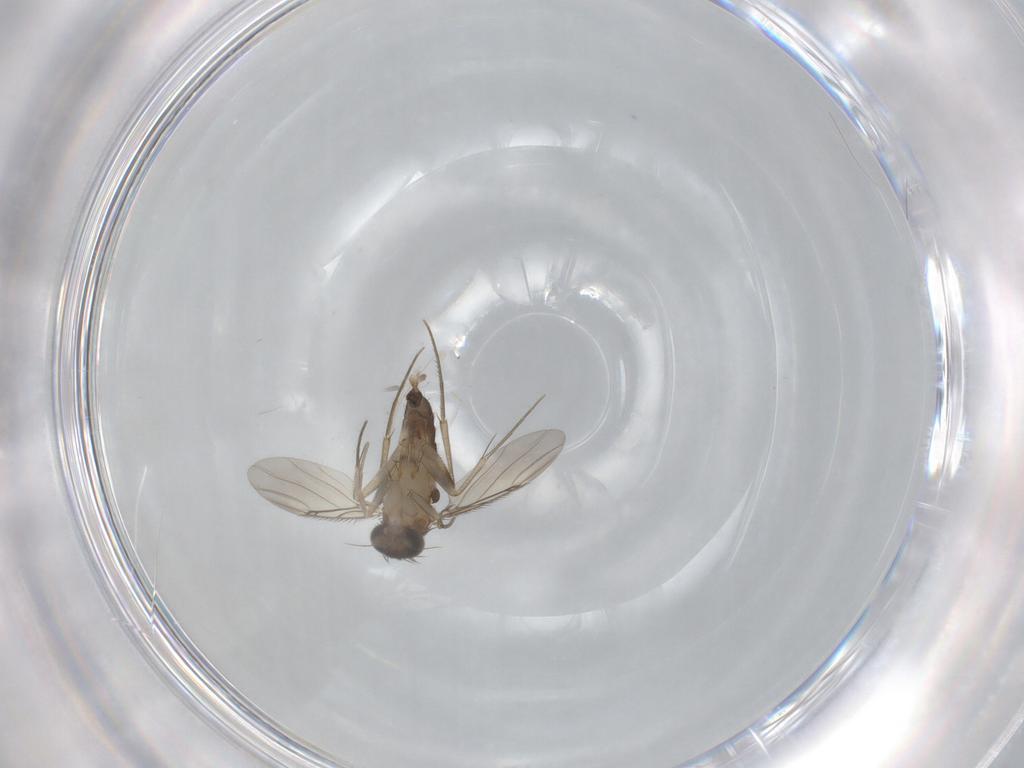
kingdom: Animalia
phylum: Arthropoda
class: Insecta
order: Diptera
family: Phoridae
